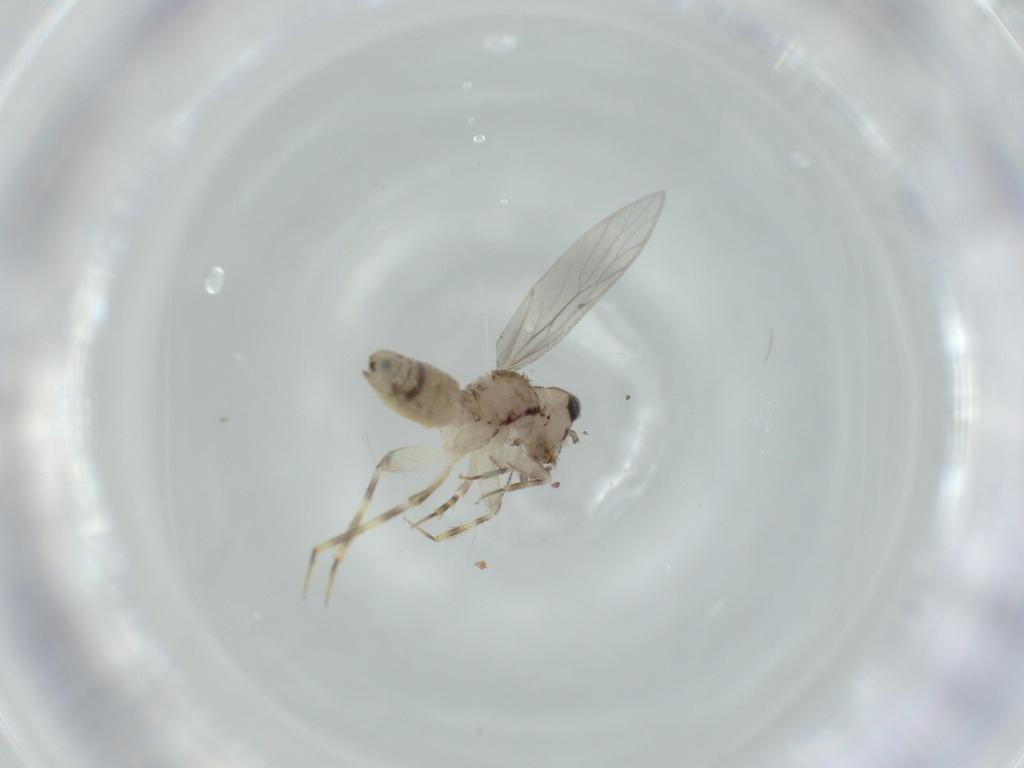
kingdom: Animalia
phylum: Arthropoda
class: Insecta
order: Psocodea
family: Lepidopsocidae
